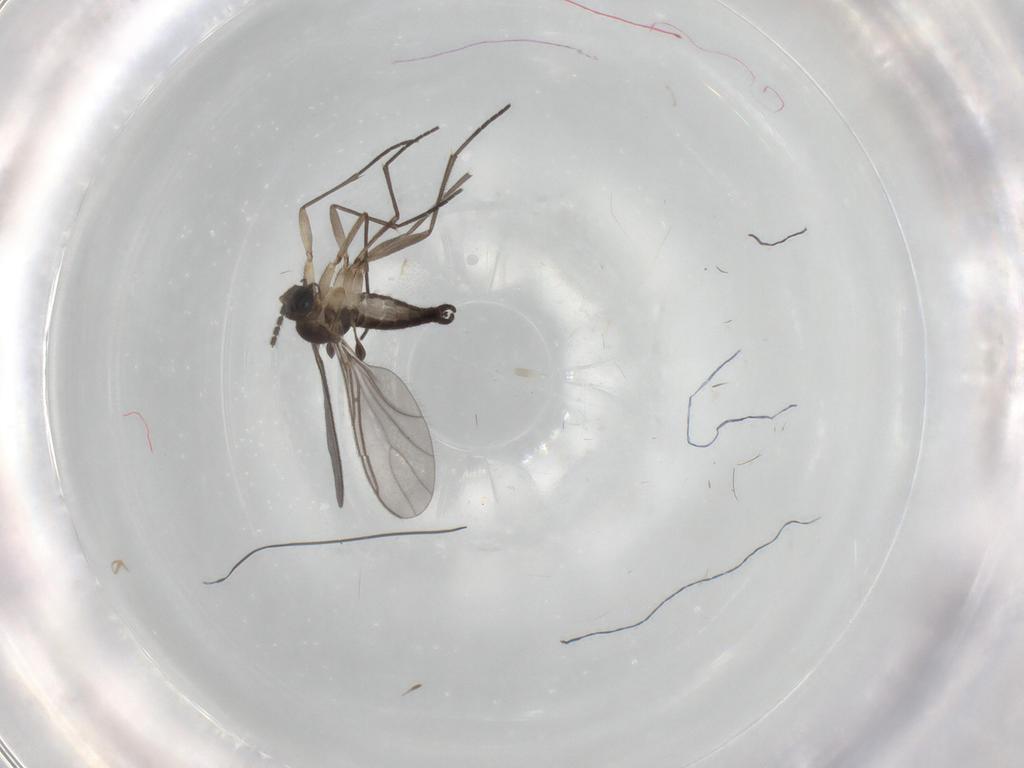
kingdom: Animalia
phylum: Arthropoda
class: Insecta
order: Diptera
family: Sciaridae
